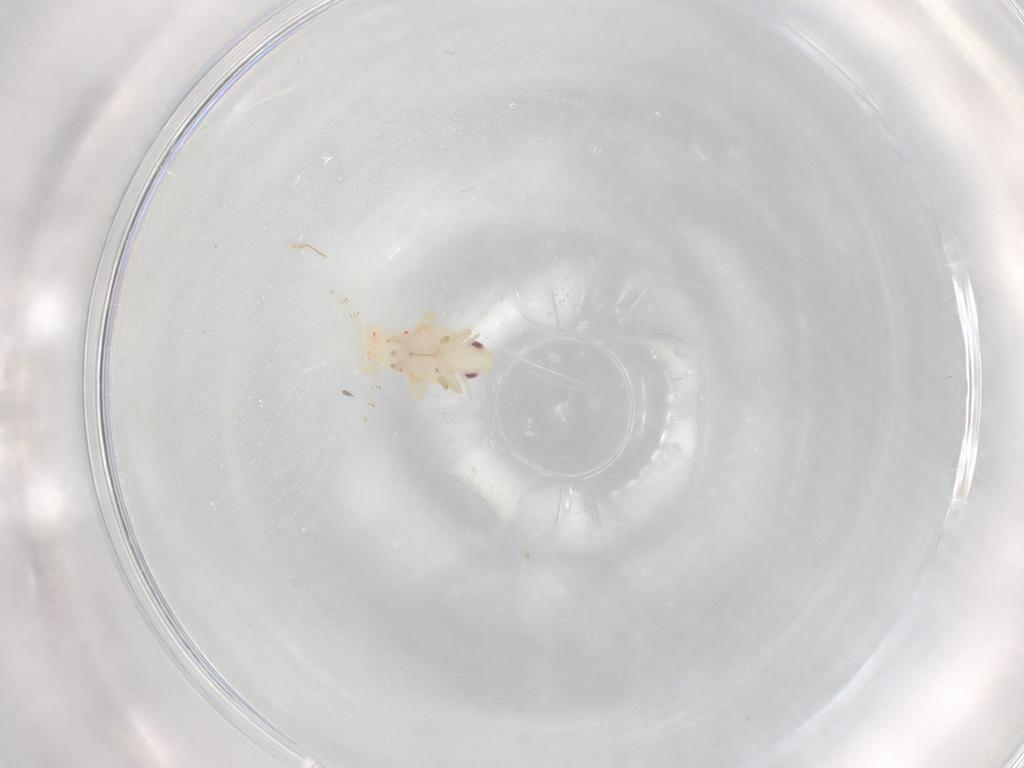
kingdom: Animalia
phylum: Arthropoda
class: Insecta
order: Hemiptera
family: Tropiduchidae
